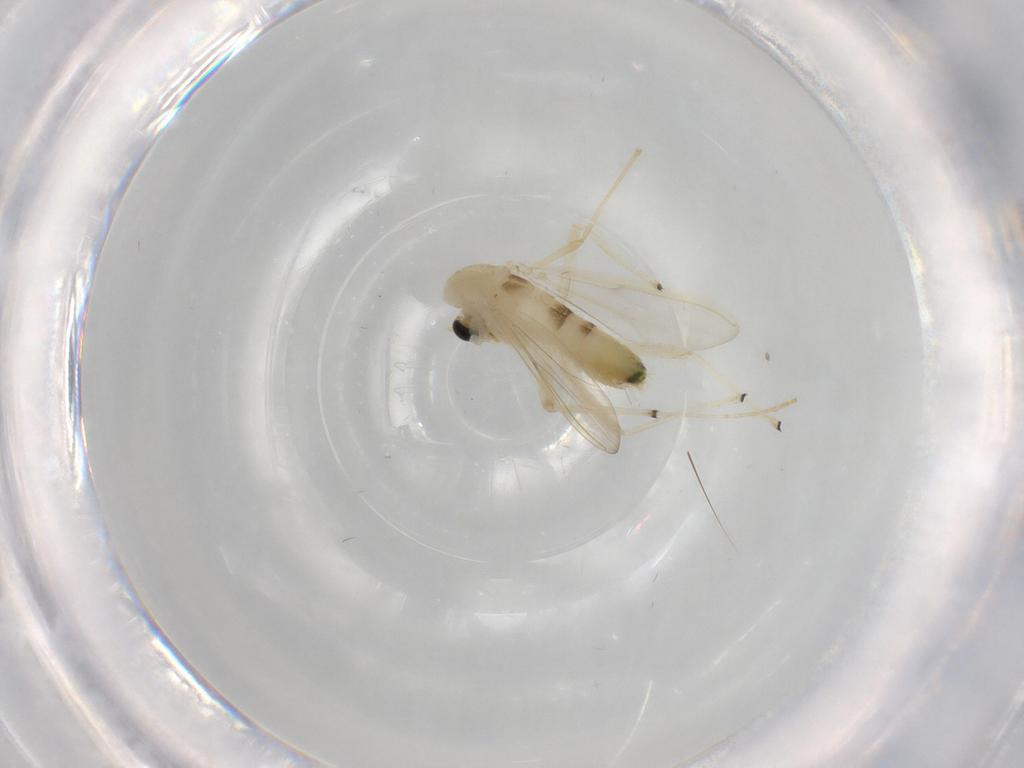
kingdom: Animalia
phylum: Arthropoda
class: Insecta
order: Diptera
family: Chironomidae
